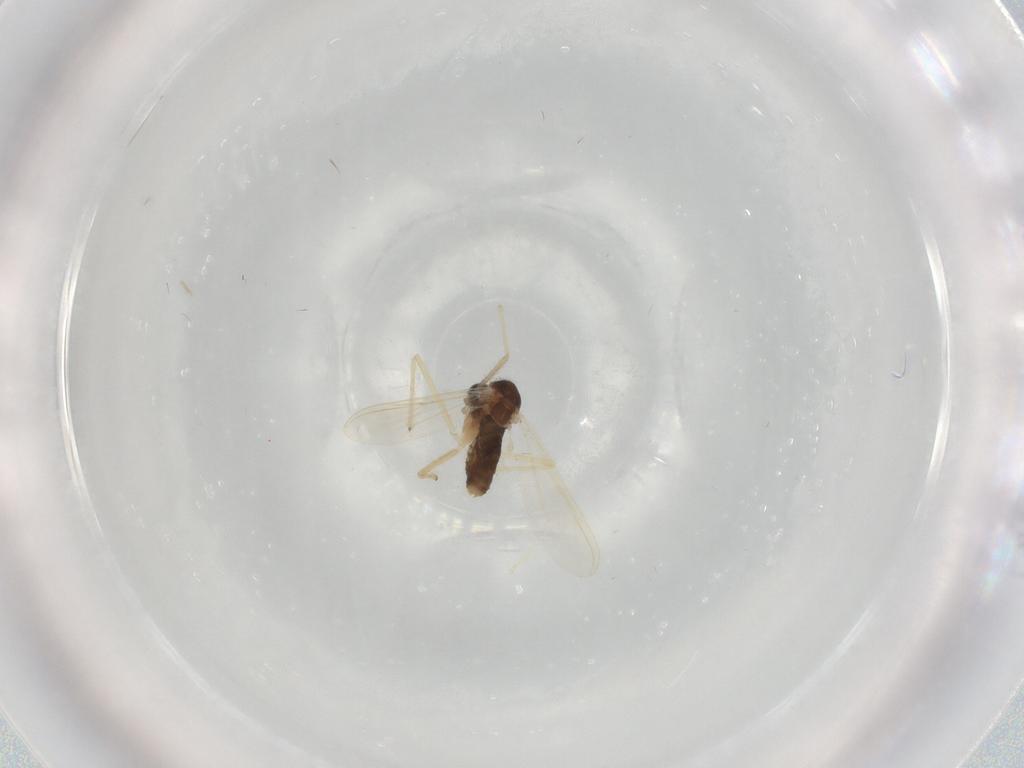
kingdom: Animalia
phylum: Arthropoda
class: Insecta
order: Diptera
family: Chironomidae
